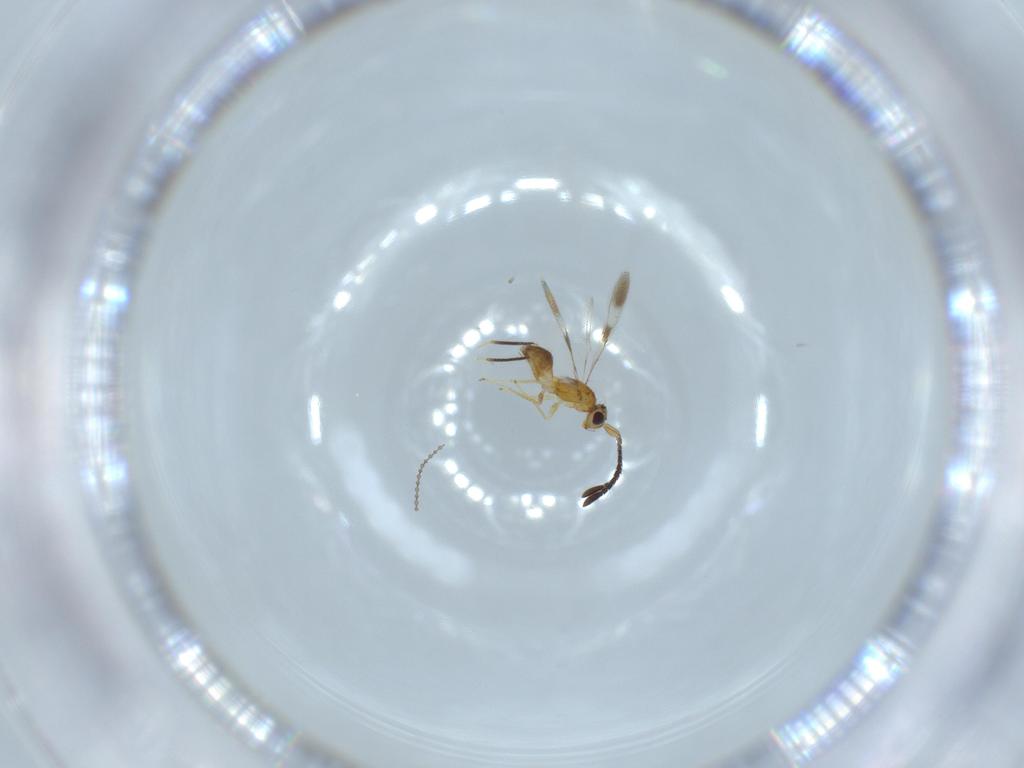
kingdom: Animalia
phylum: Arthropoda
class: Insecta
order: Hymenoptera
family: Mymaridae
